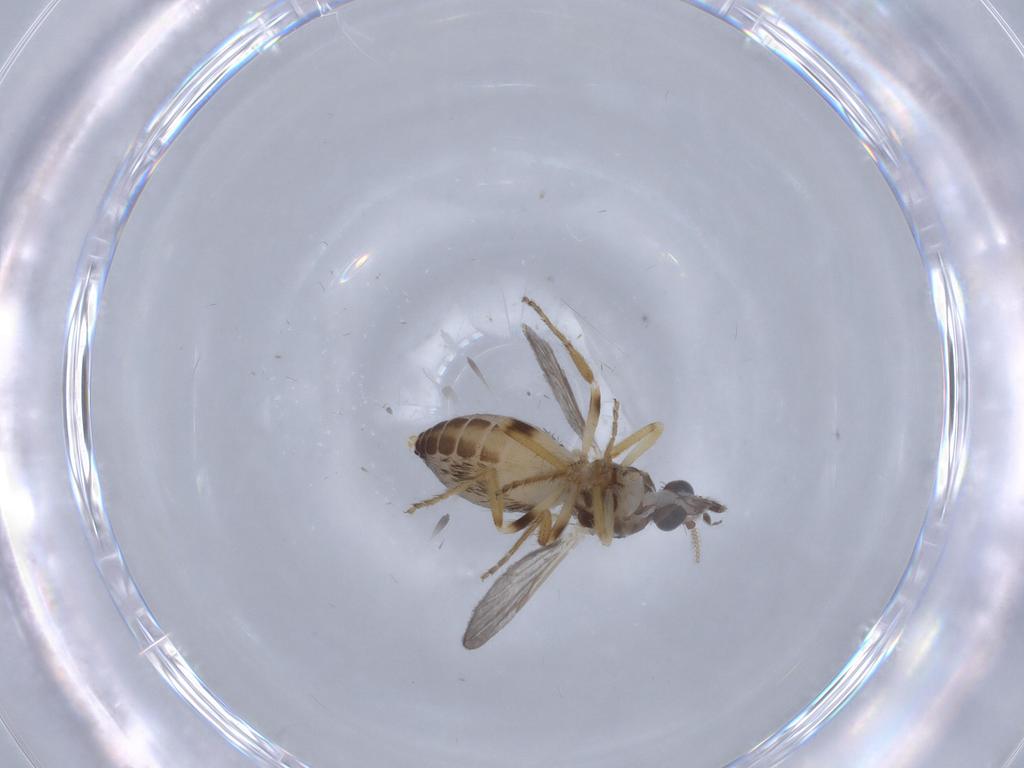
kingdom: Animalia
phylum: Arthropoda
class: Insecta
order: Diptera
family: Ceratopogonidae
